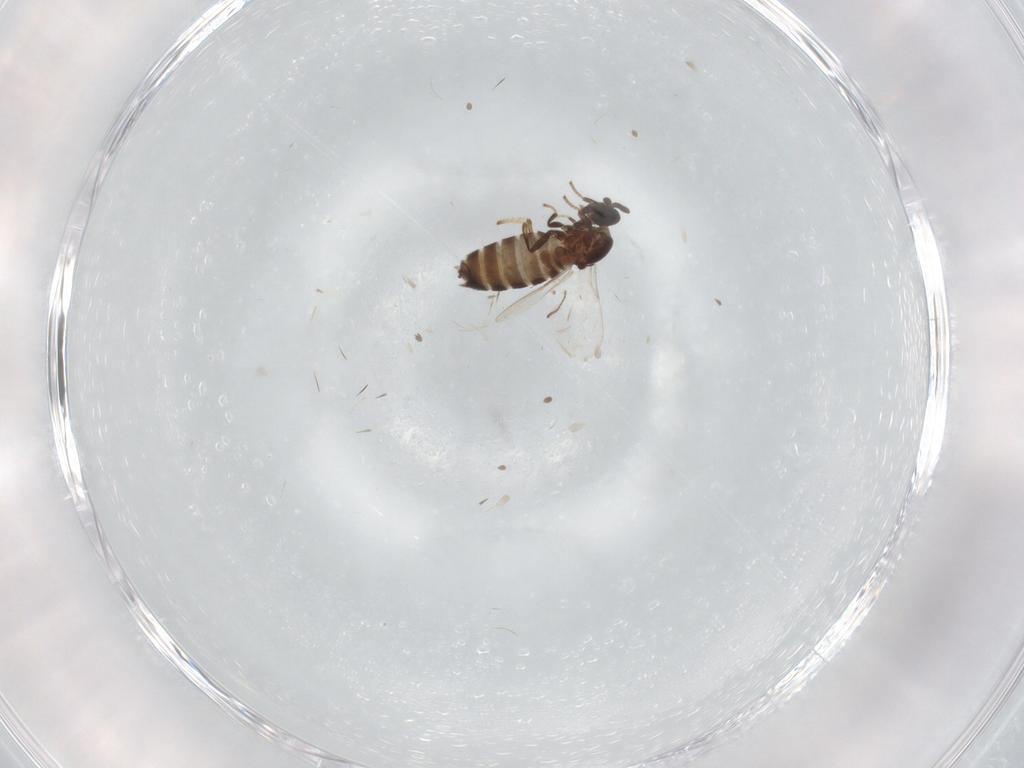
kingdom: Animalia
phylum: Arthropoda
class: Insecta
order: Diptera
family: Scatopsidae
